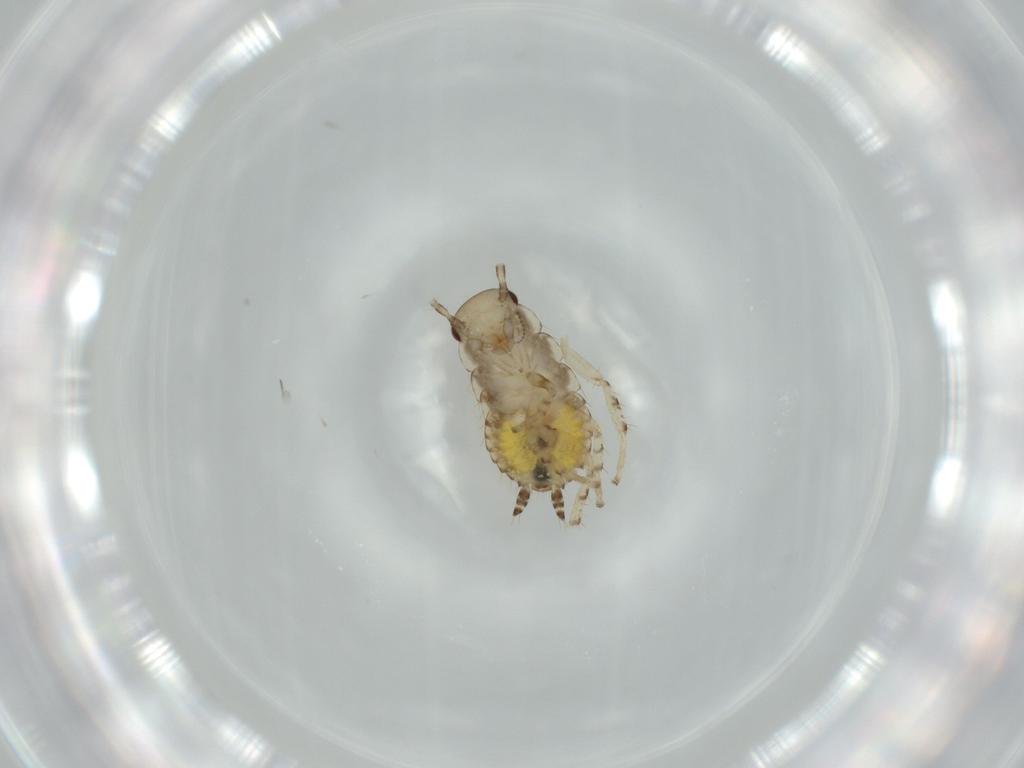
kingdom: Animalia
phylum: Arthropoda
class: Insecta
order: Blattodea
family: Ectobiidae
